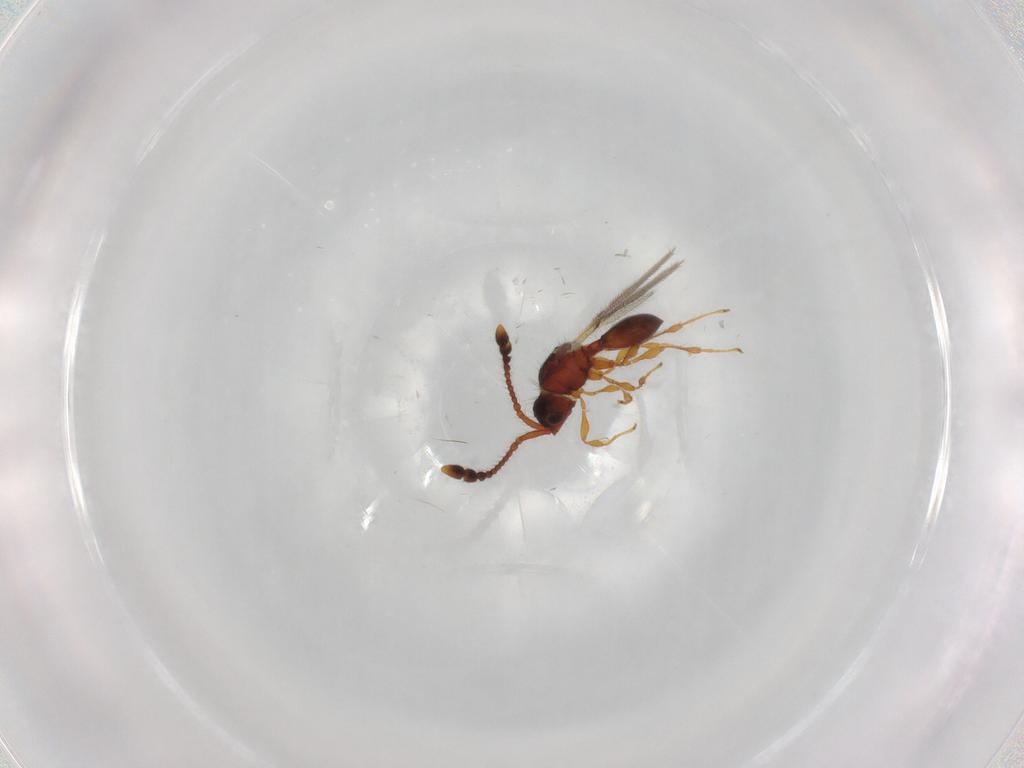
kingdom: Animalia
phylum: Arthropoda
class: Insecta
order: Hymenoptera
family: Diapriidae
